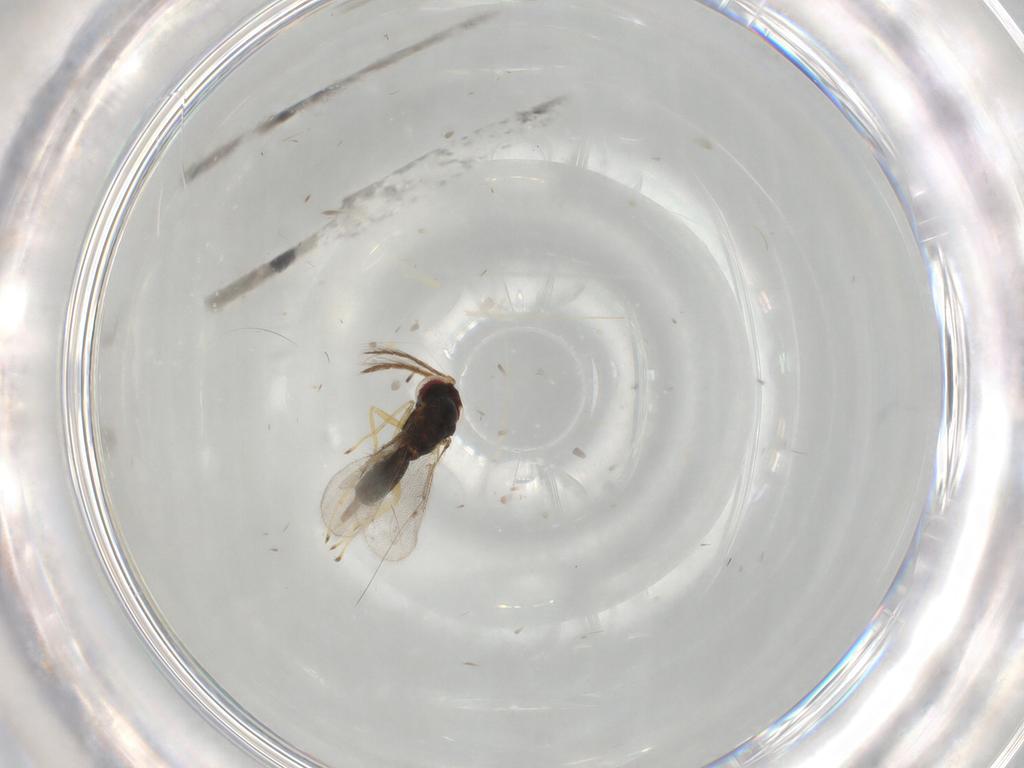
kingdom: Animalia
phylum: Arthropoda
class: Insecta
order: Hymenoptera
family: Eulophidae
